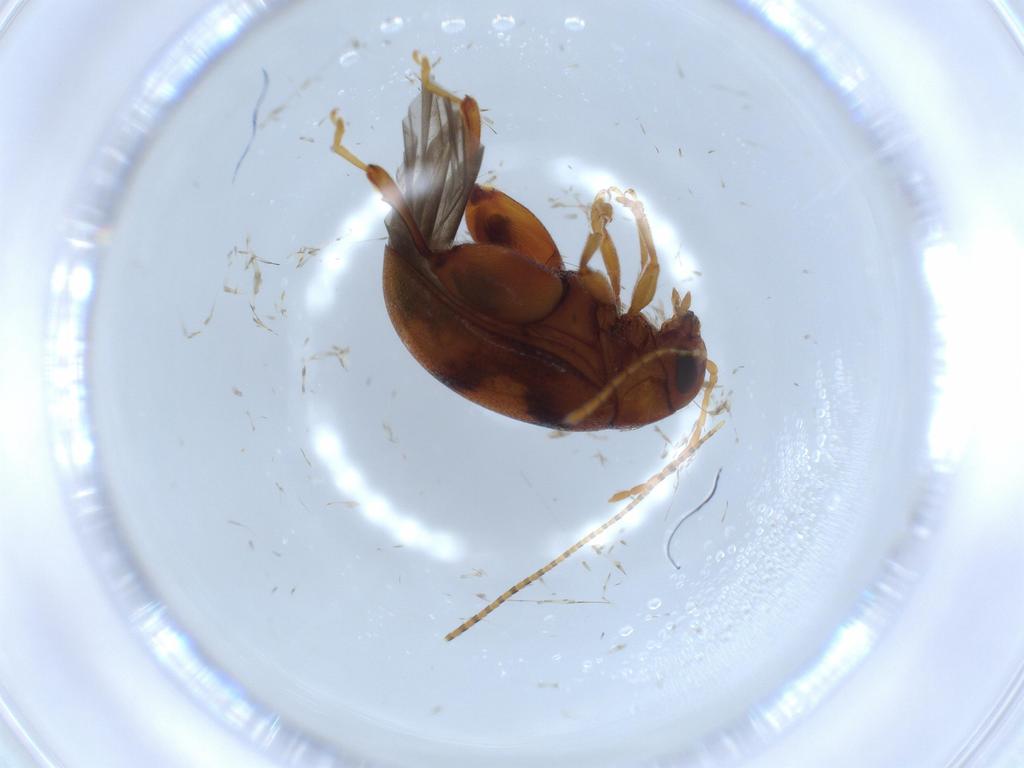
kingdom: Animalia
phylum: Arthropoda
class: Insecta
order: Coleoptera
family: Chrysomelidae
